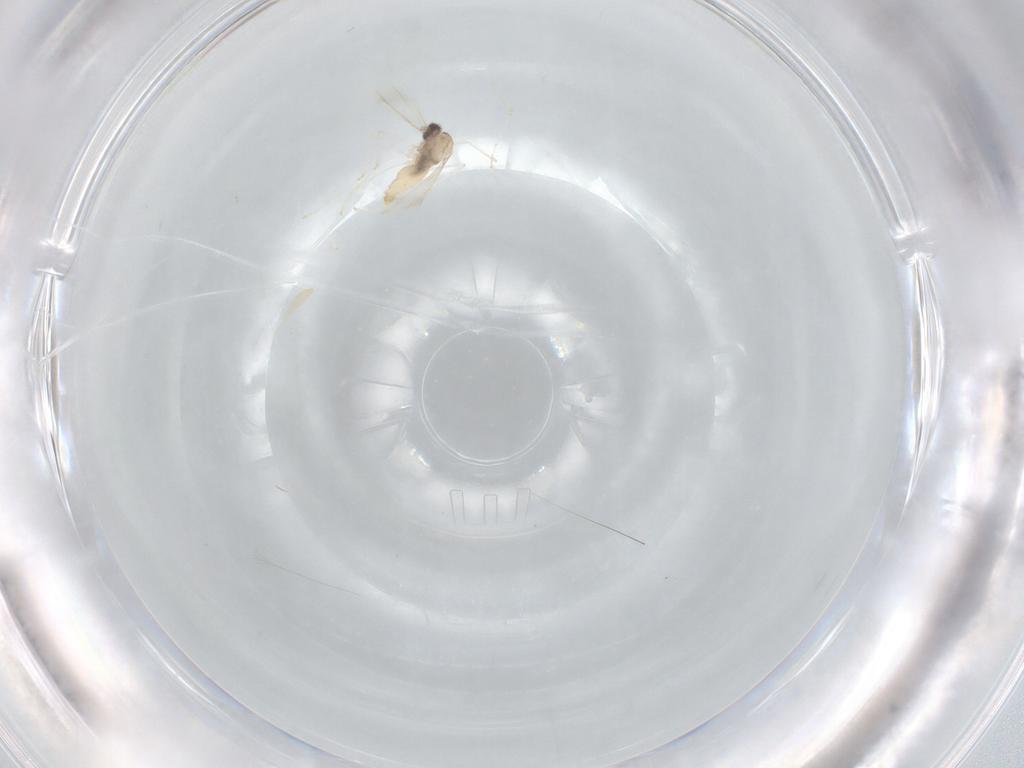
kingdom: Animalia
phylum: Arthropoda
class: Insecta
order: Diptera
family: Cecidomyiidae
